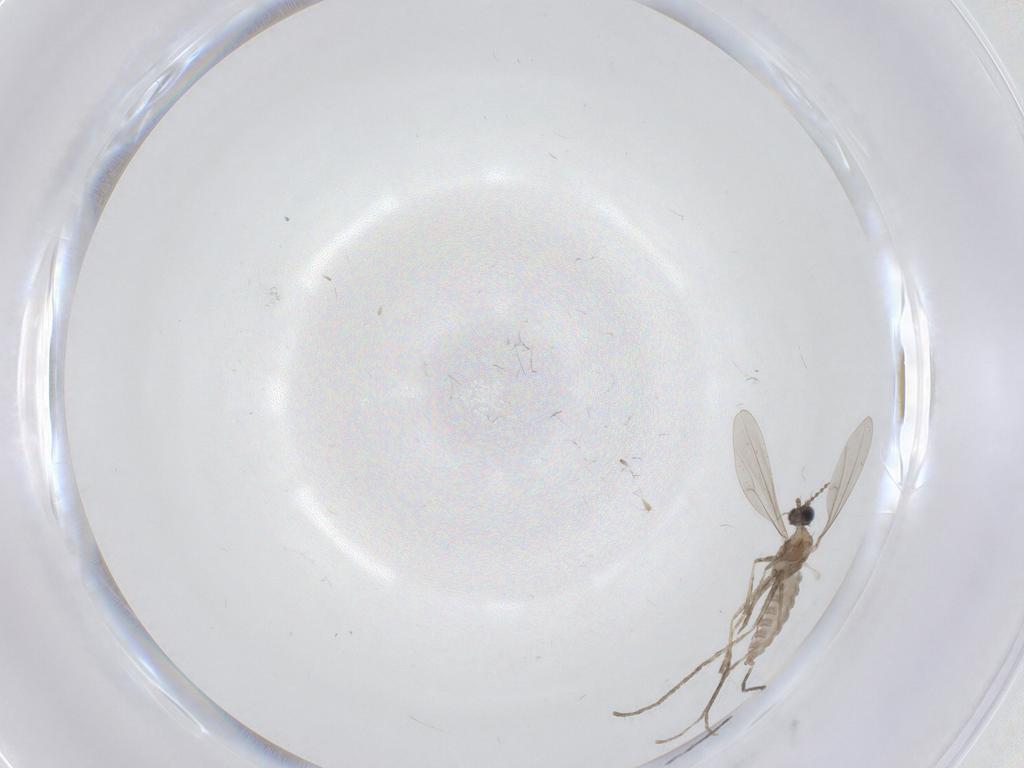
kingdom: Animalia
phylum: Arthropoda
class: Insecta
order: Diptera
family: Cecidomyiidae
